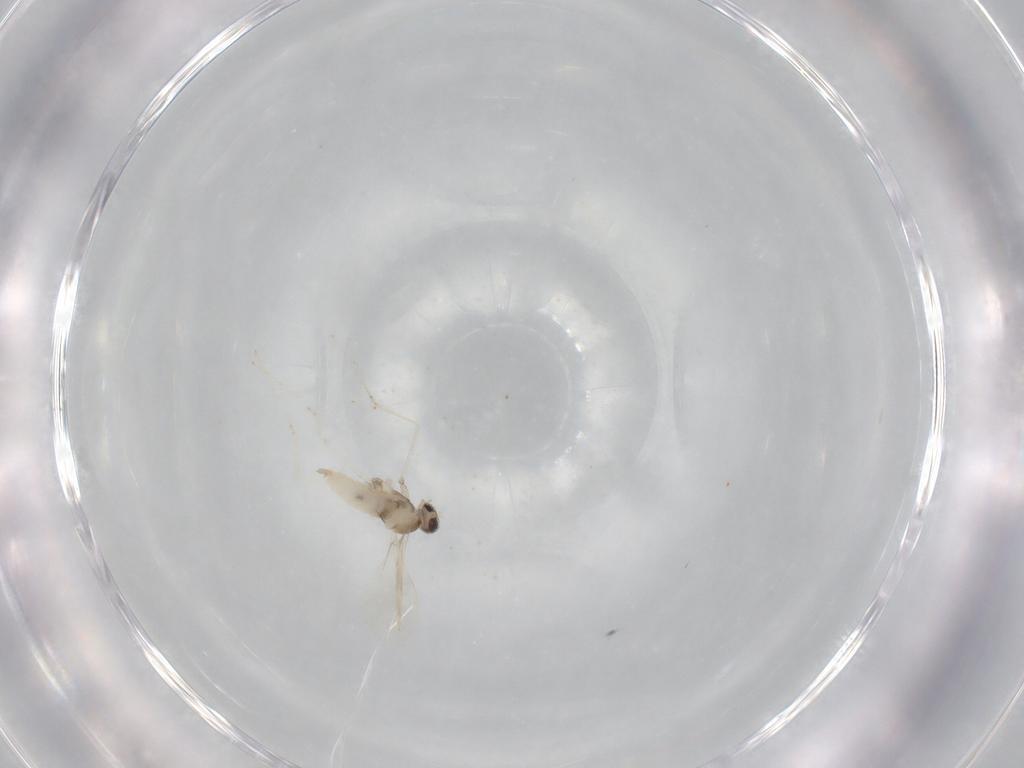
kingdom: Animalia
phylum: Arthropoda
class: Insecta
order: Diptera
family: Cecidomyiidae
